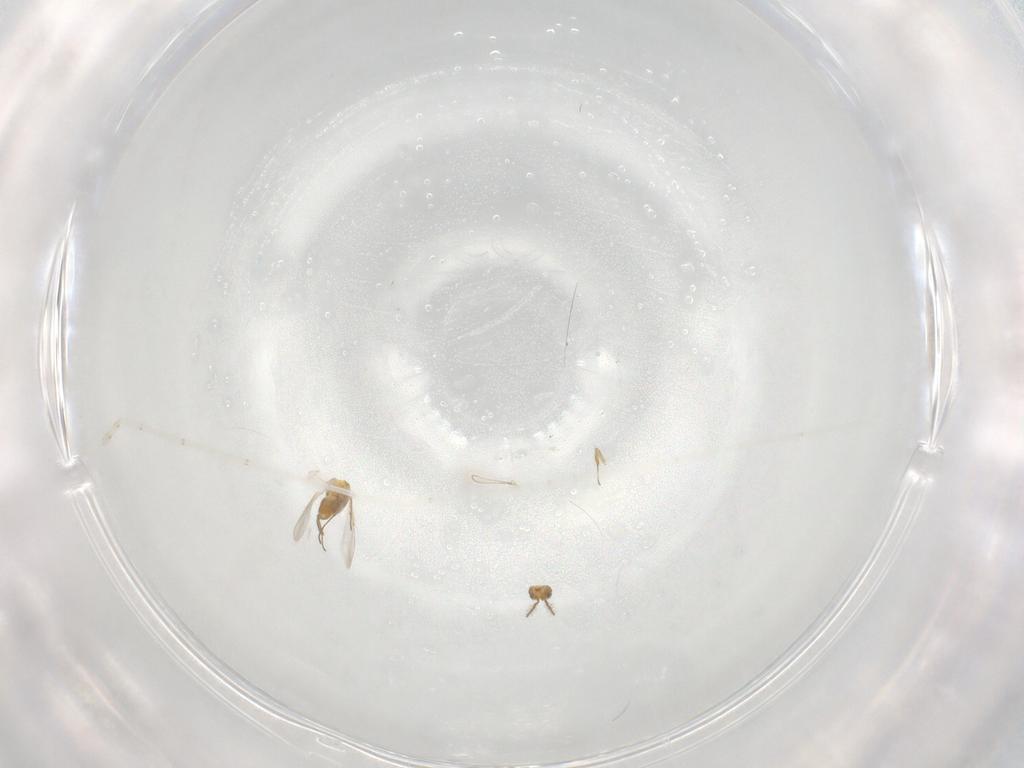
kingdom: Animalia
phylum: Arthropoda
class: Insecta
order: Hymenoptera
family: Aphelinidae
